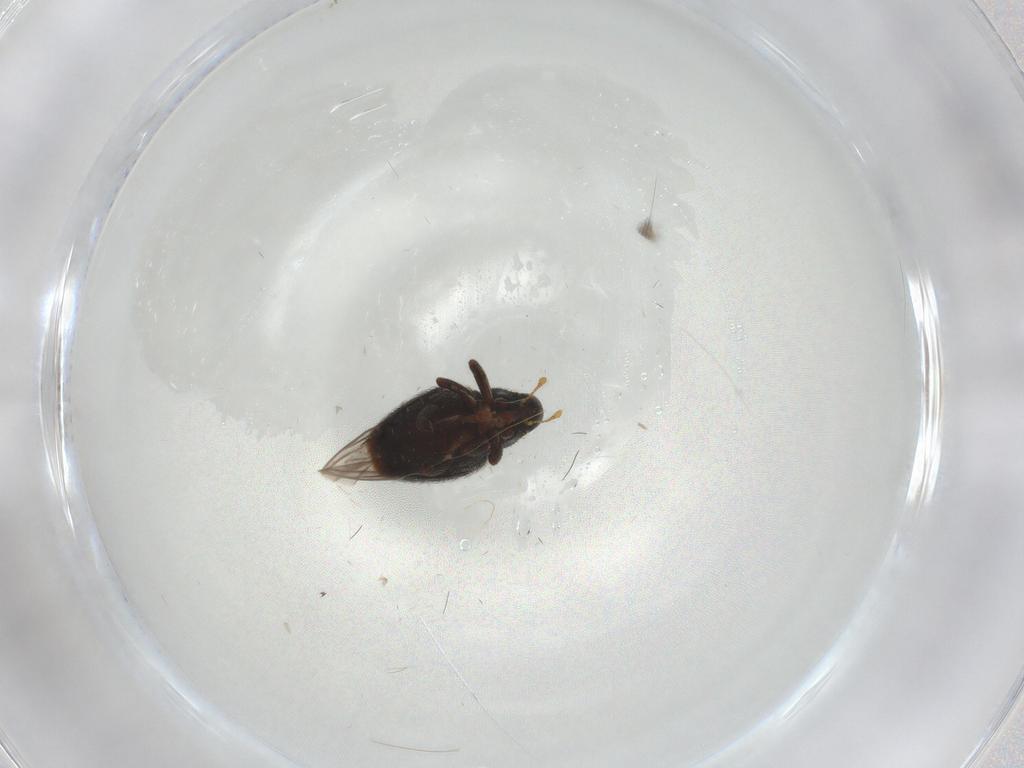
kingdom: Animalia
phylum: Arthropoda
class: Insecta
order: Coleoptera
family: Curculionidae
